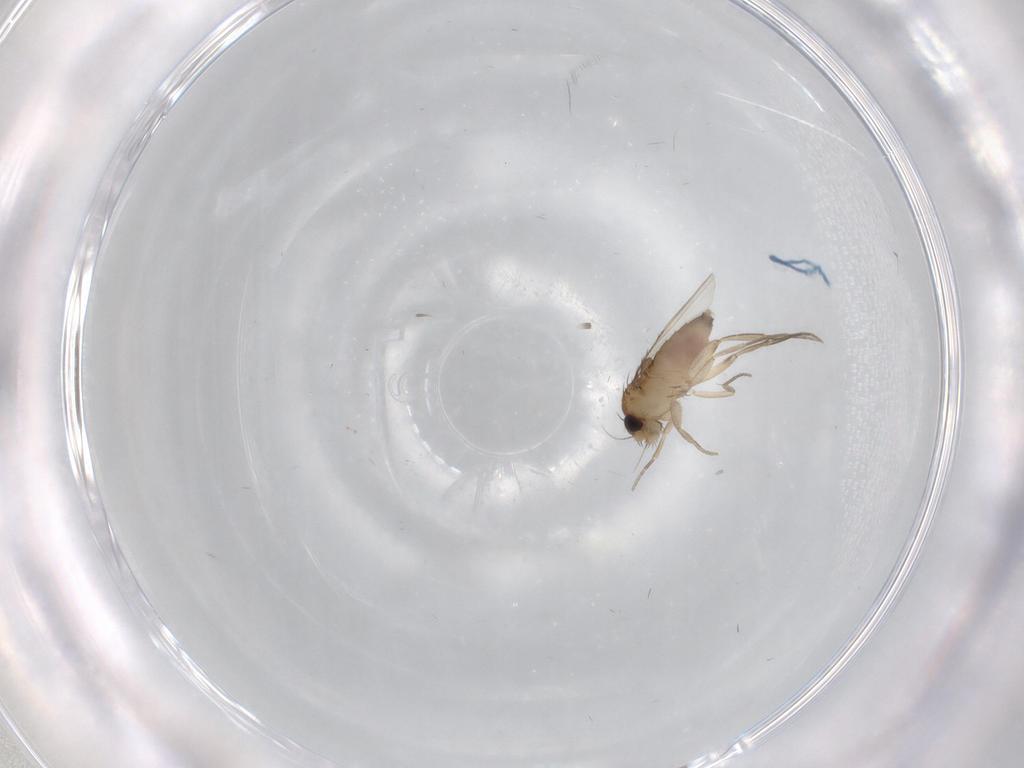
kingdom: Animalia
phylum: Arthropoda
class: Insecta
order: Diptera
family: Phoridae
